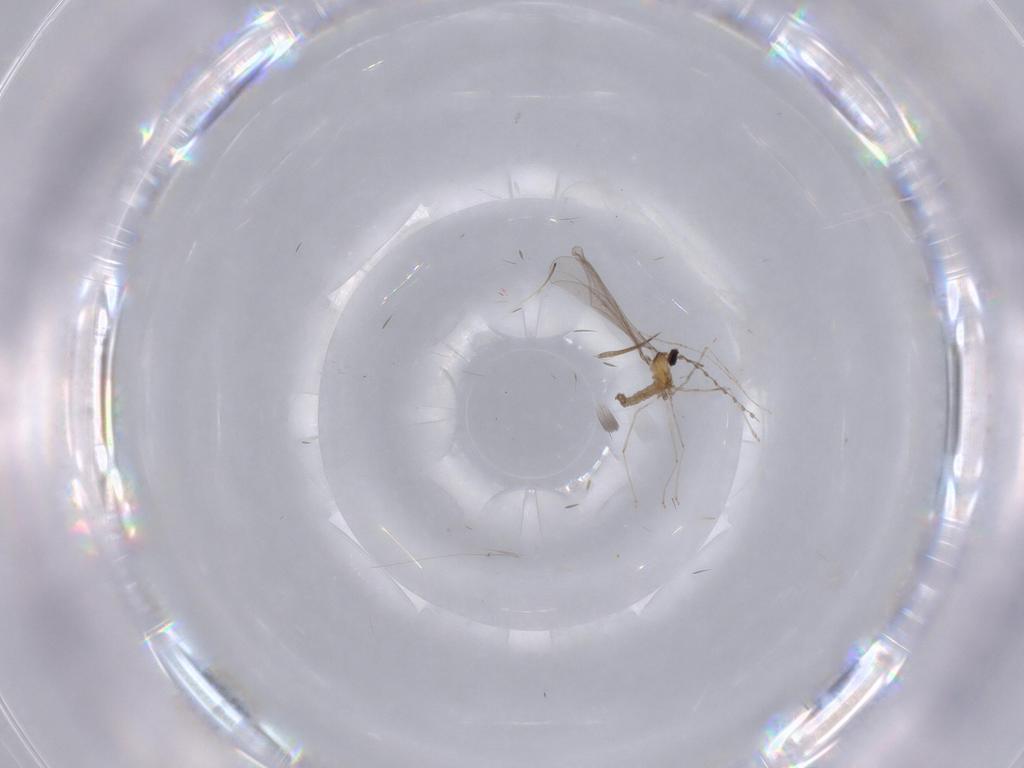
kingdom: Animalia
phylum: Arthropoda
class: Insecta
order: Diptera
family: Cecidomyiidae
